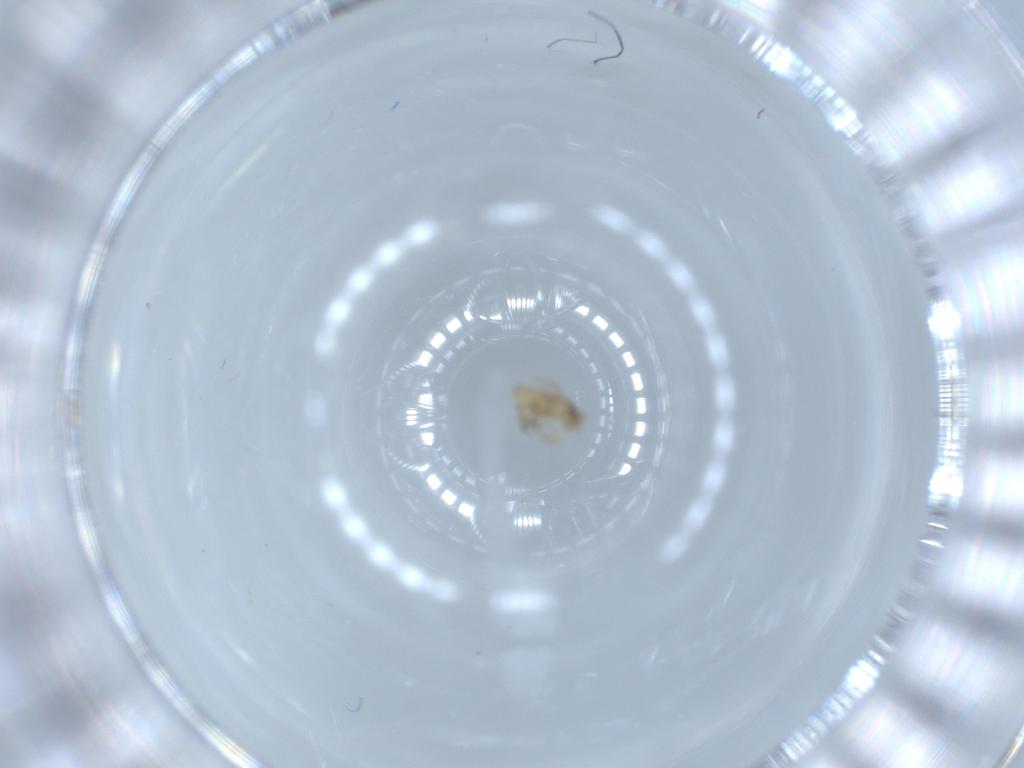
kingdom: Animalia
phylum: Arthropoda
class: Insecta
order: Diptera
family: Phoridae
